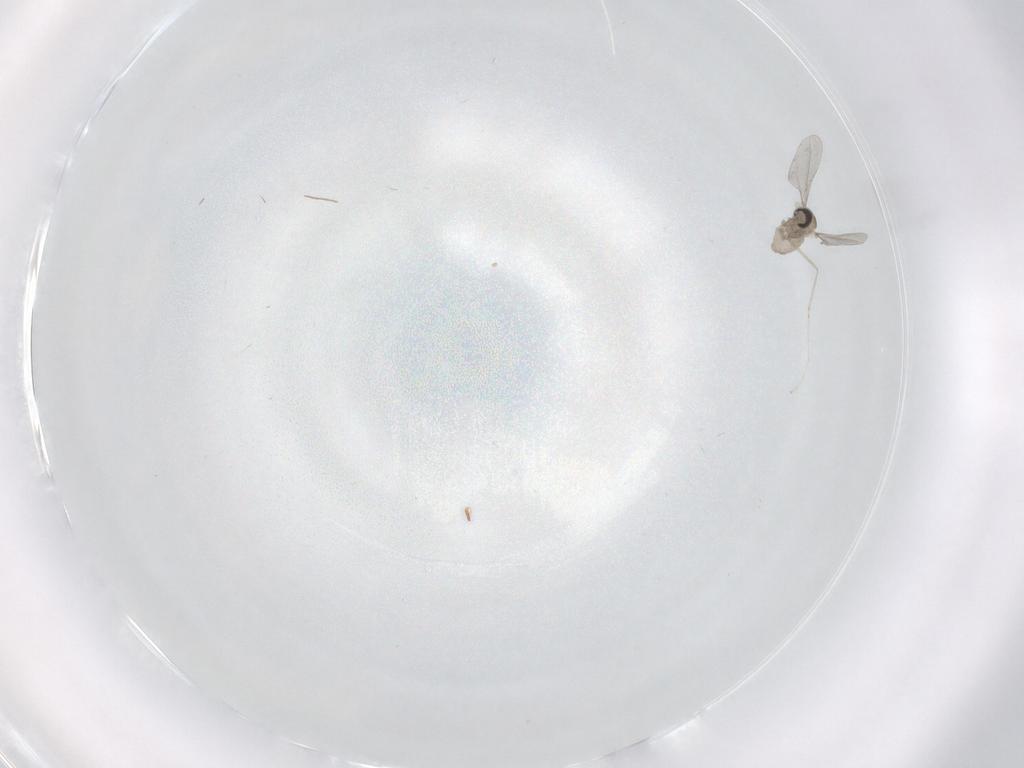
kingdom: Animalia
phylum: Arthropoda
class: Insecta
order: Diptera
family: Cecidomyiidae
